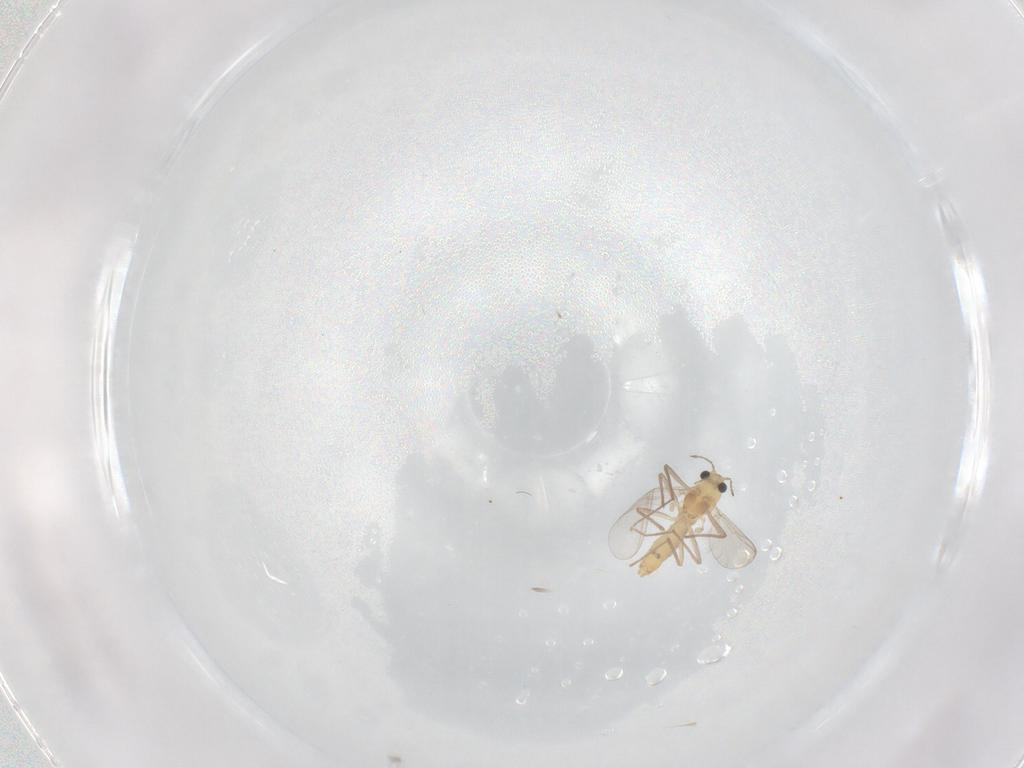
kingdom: Animalia
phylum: Arthropoda
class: Insecta
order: Diptera
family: Chironomidae
